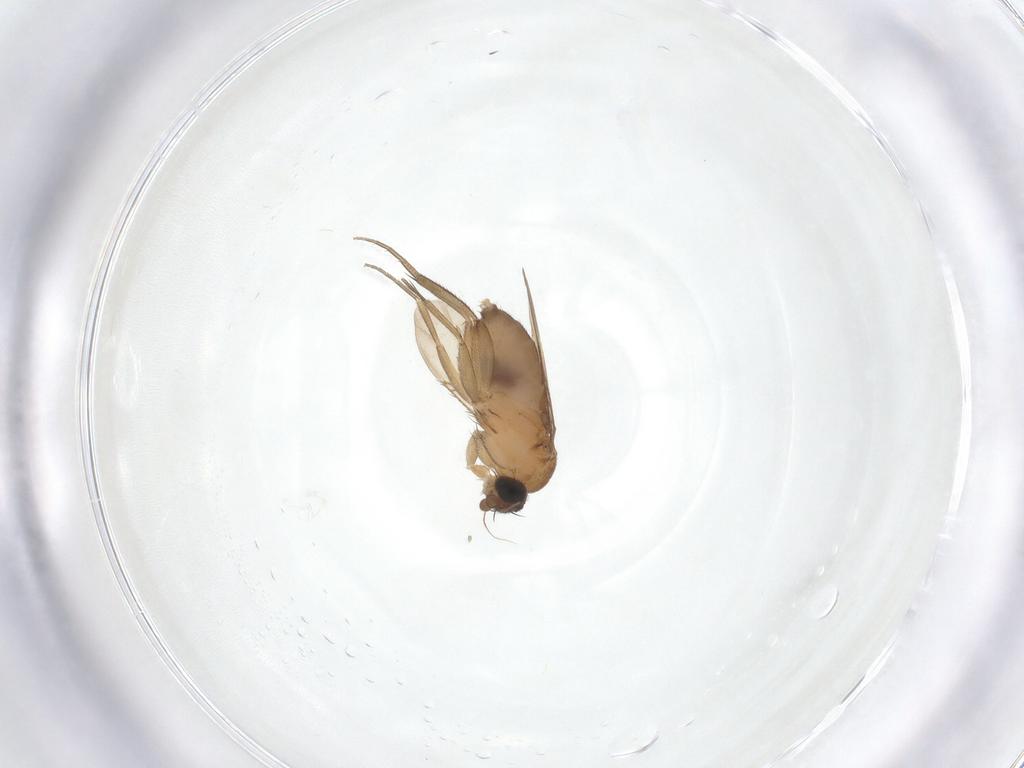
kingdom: Animalia
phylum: Arthropoda
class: Insecta
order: Diptera
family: Phoridae
